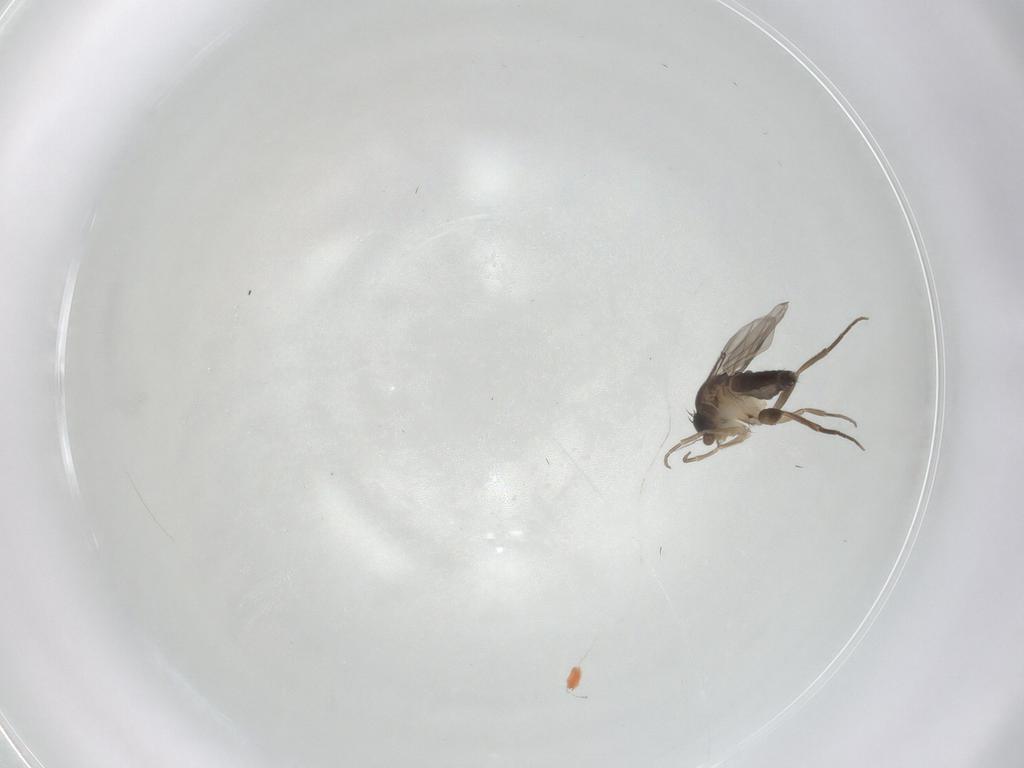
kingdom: Animalia
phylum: Arthropoda
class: Insecta
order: Diptera
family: Phoridae
